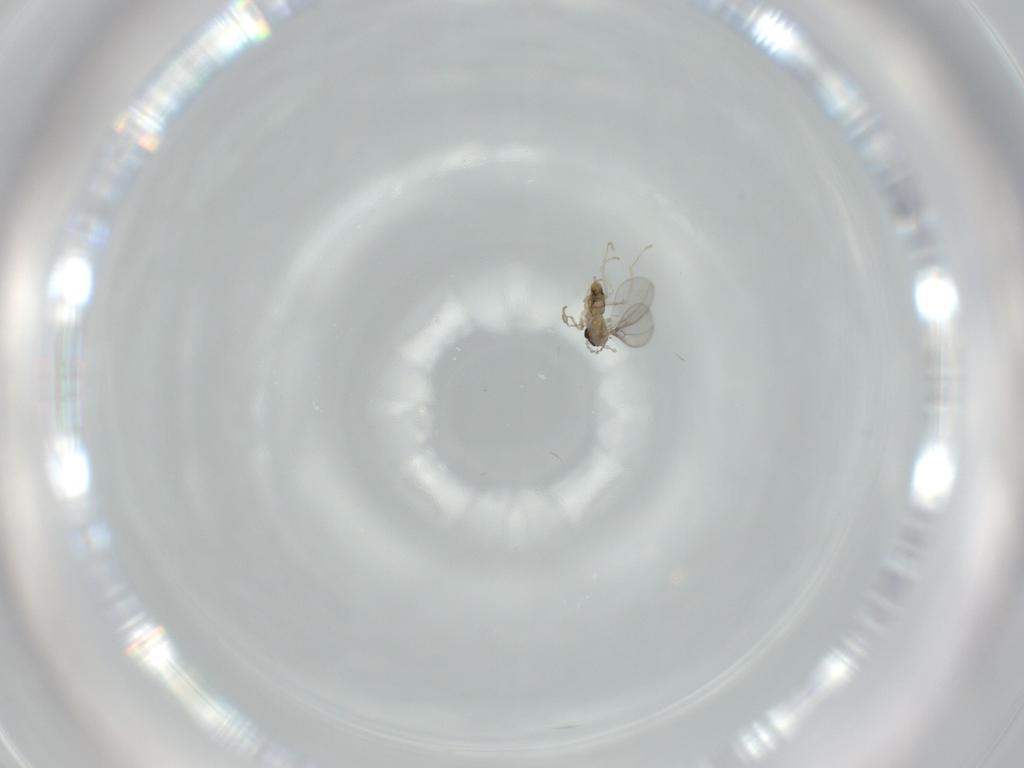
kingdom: Animalia
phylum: Arthropoda
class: Insecta
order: Diptera
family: Cecidomyiidae
